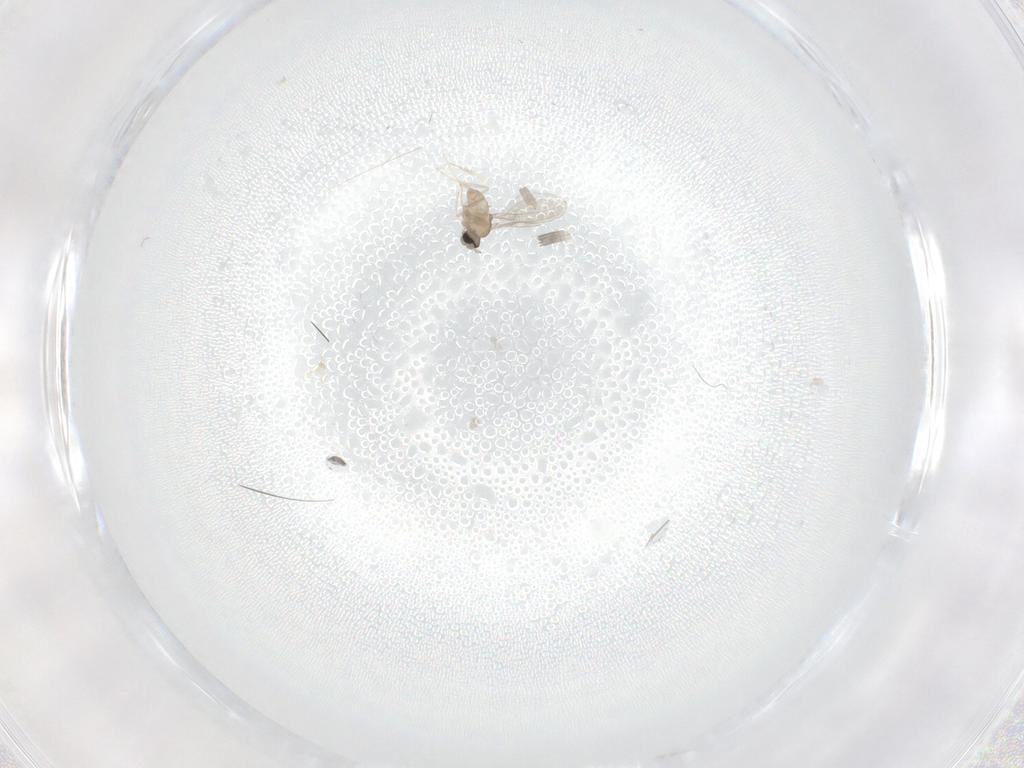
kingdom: Animalia
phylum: Arthropoda
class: Insecta
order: Diptera
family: Cecidomyiidae
